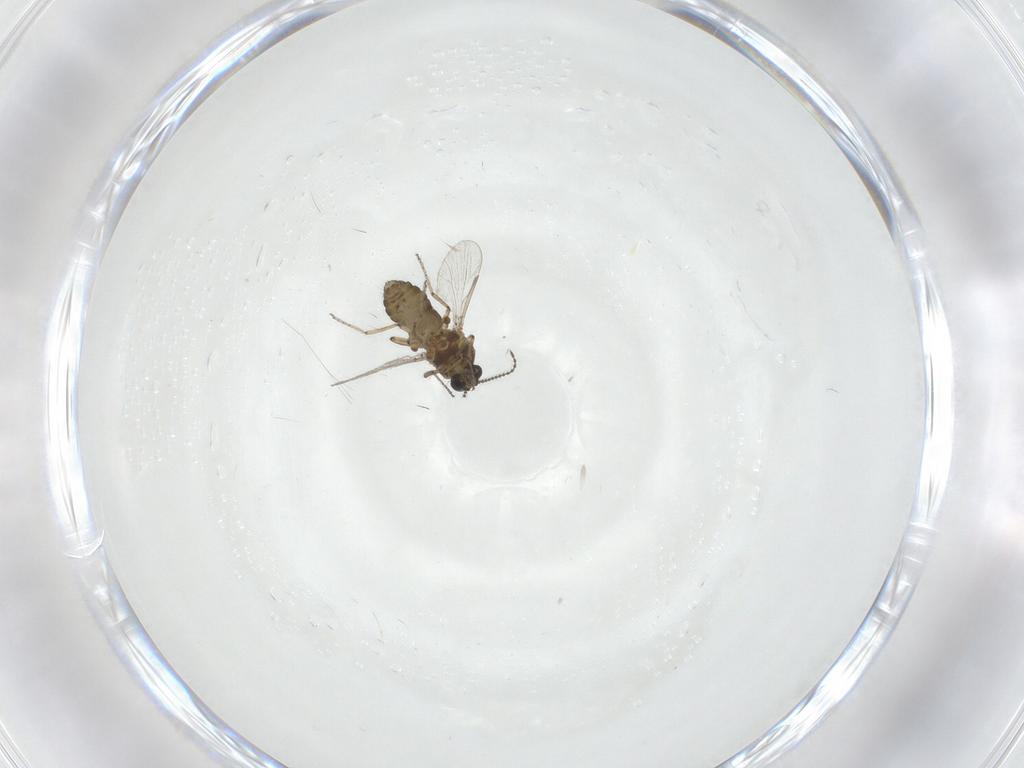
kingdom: Animalia
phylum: Arthropoda
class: Insecta
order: Diptera
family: Ceratopogonidae
